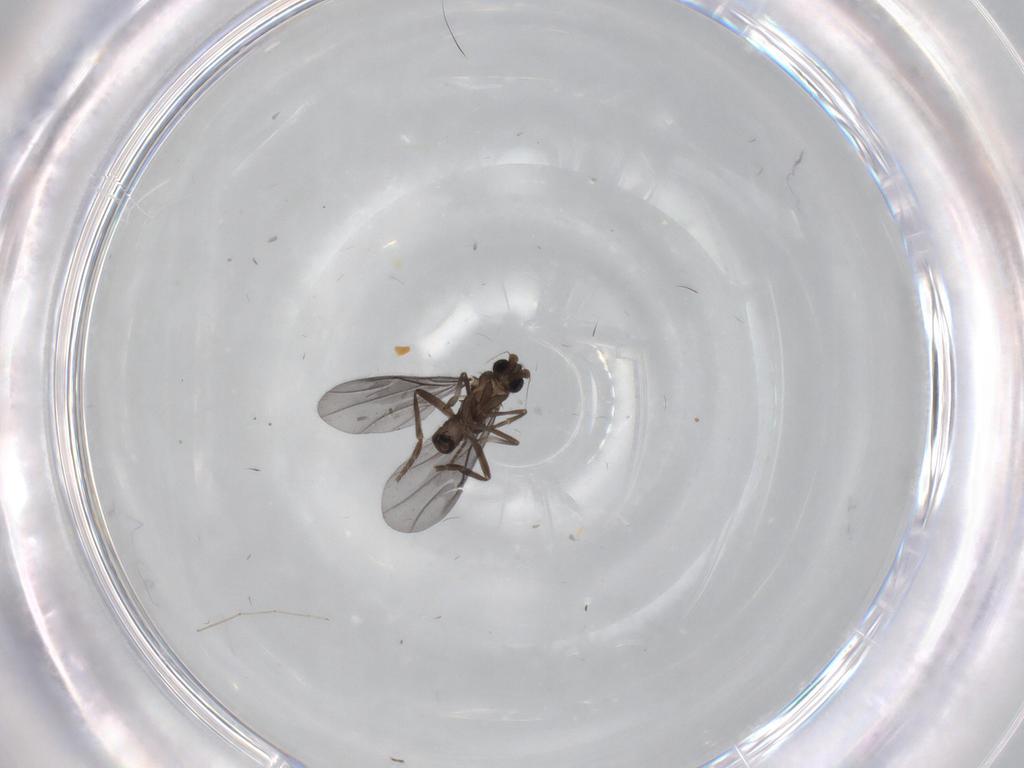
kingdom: Animalia
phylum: Arthropoda
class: Insecta
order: Diptera
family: Phoridae
